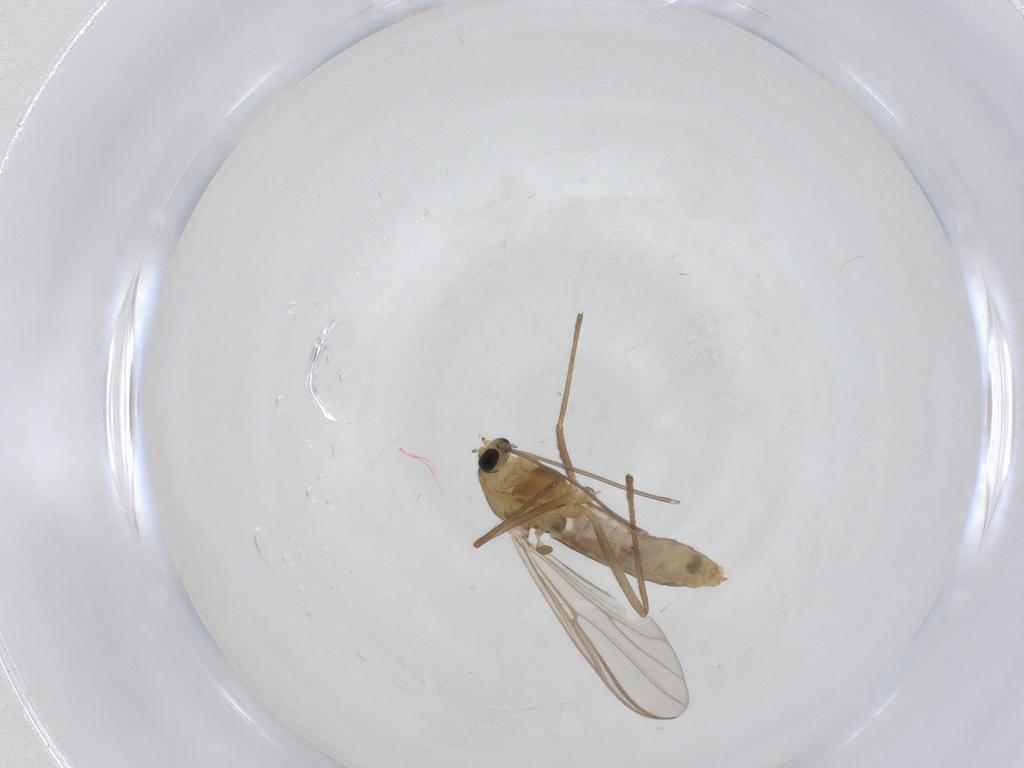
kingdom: Animalia
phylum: Arthropoda
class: Insecta
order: Diptera
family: Chironomidae
